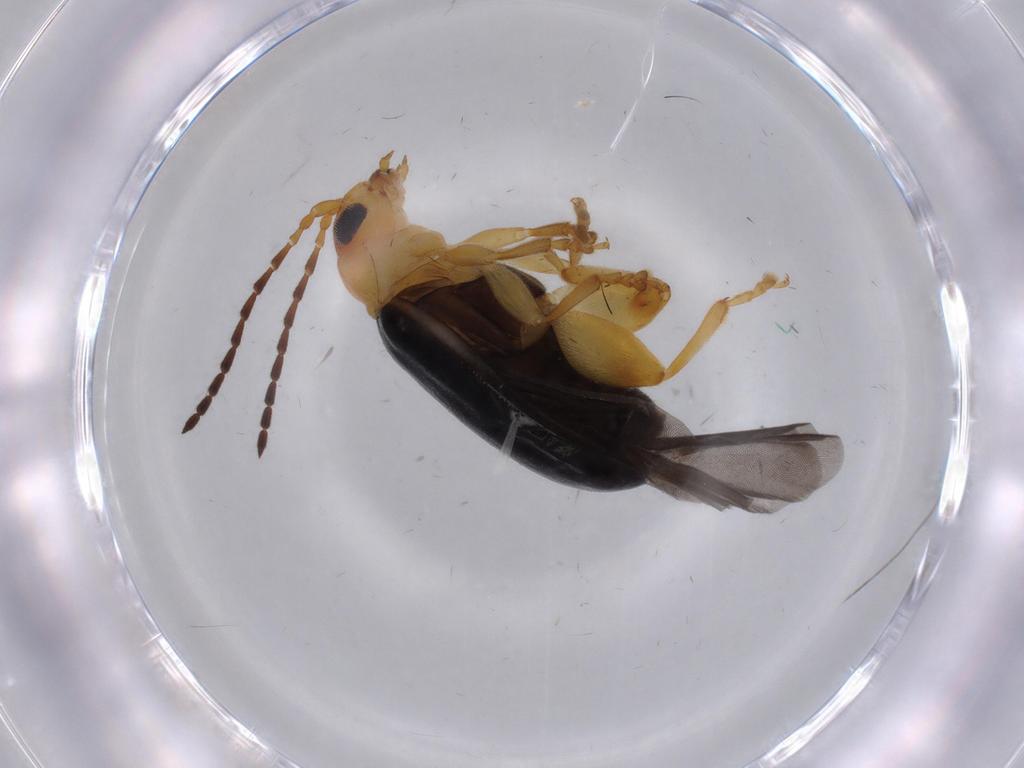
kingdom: Animalia
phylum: Arthropoda
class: Insecta
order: Coleoptera
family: Chrysomelidae
